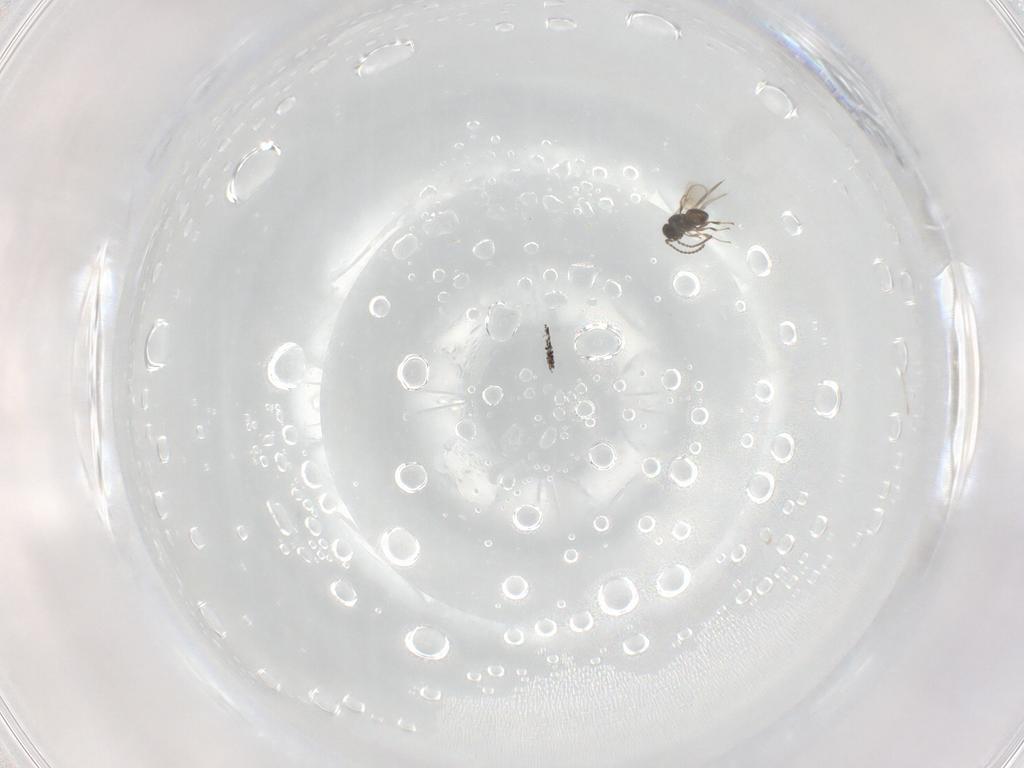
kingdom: Animalia
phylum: Arthropoda
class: Insecta
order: Hymenoptera
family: Scelionidae
